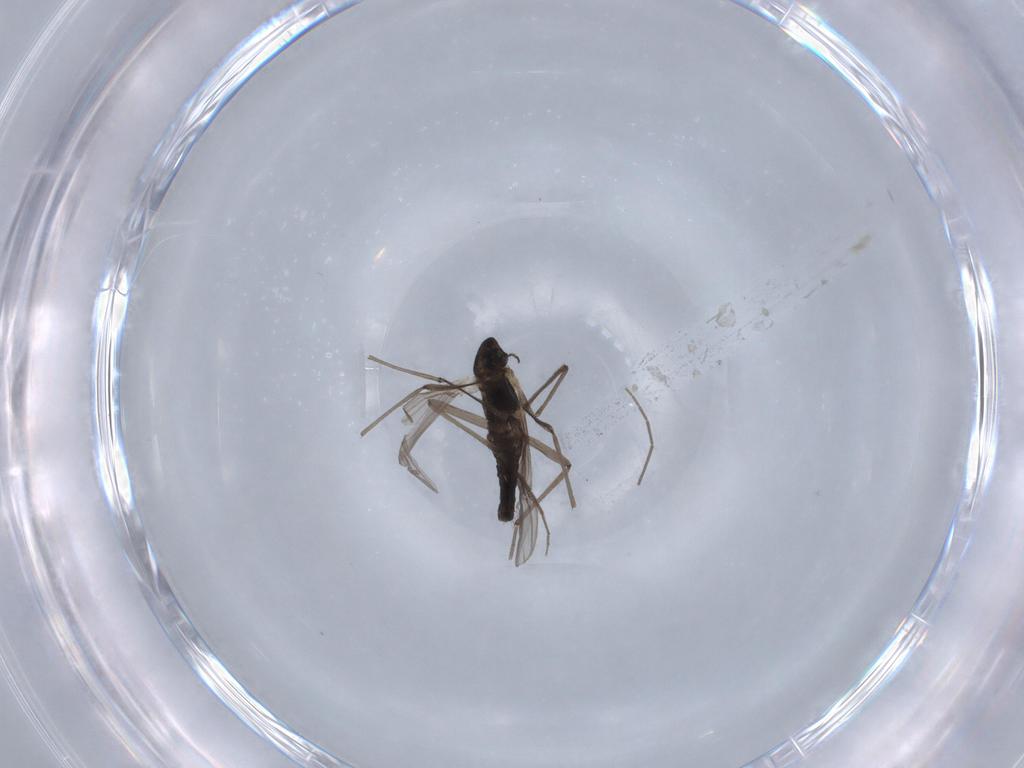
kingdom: Animalia
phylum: Arthropoda
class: Insecta
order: Diptera
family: Chironomidae
